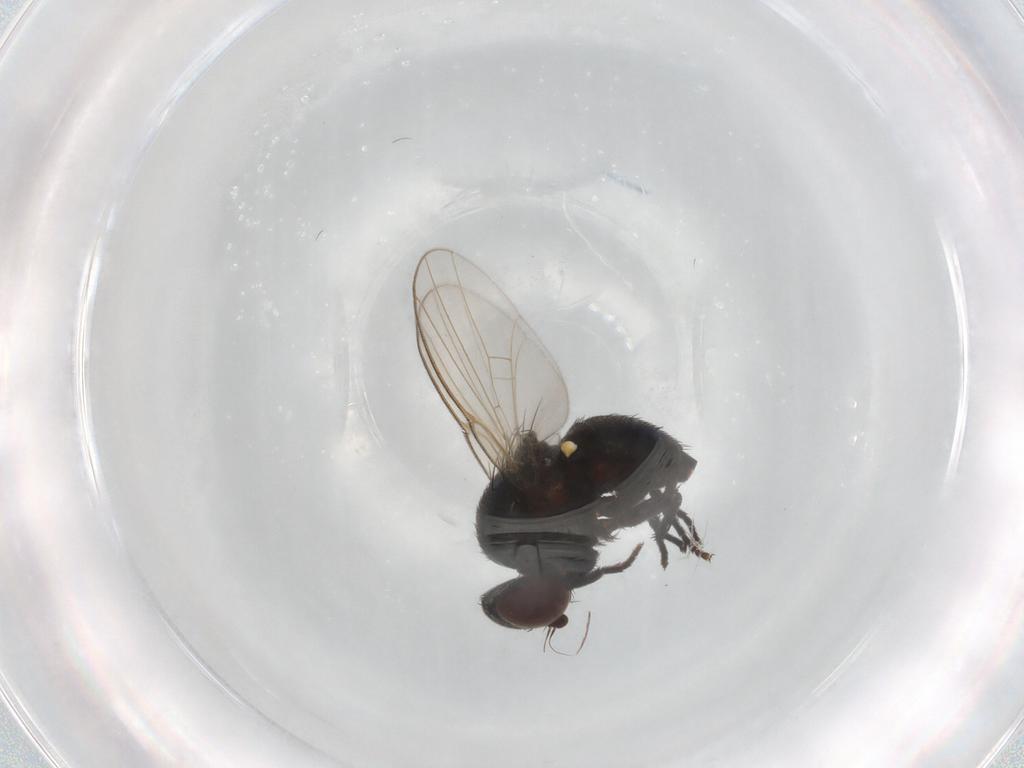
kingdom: Animalia
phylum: Arthropoda
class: Insecta
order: Diptera
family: Agromyzidae
